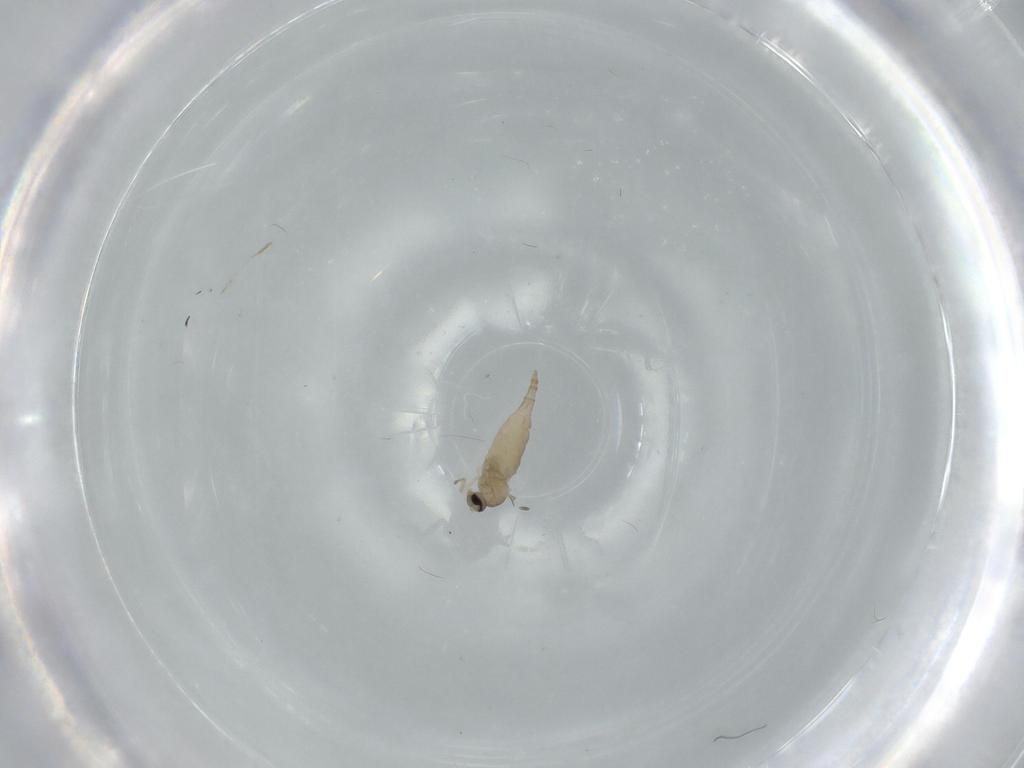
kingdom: Animalia
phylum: Arthropoda
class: Insecta
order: Diptera
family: Cecidomyiidae
